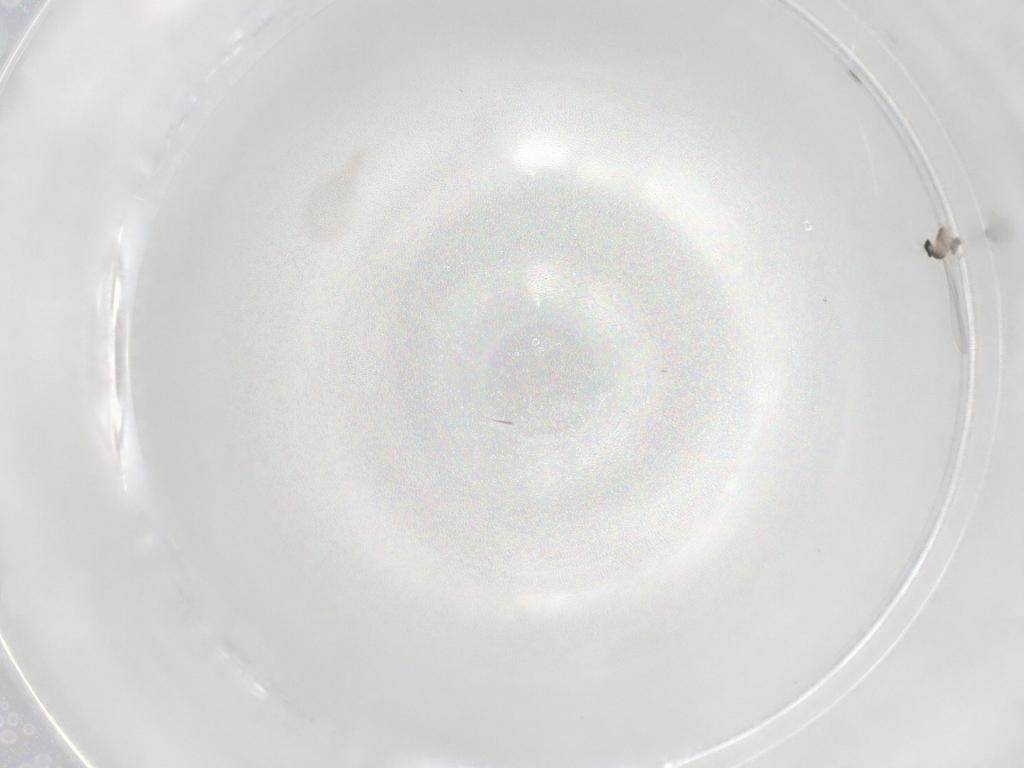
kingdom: Animalia
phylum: Arthropoda
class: Insecta
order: Diptera
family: Cecidomyiidae
